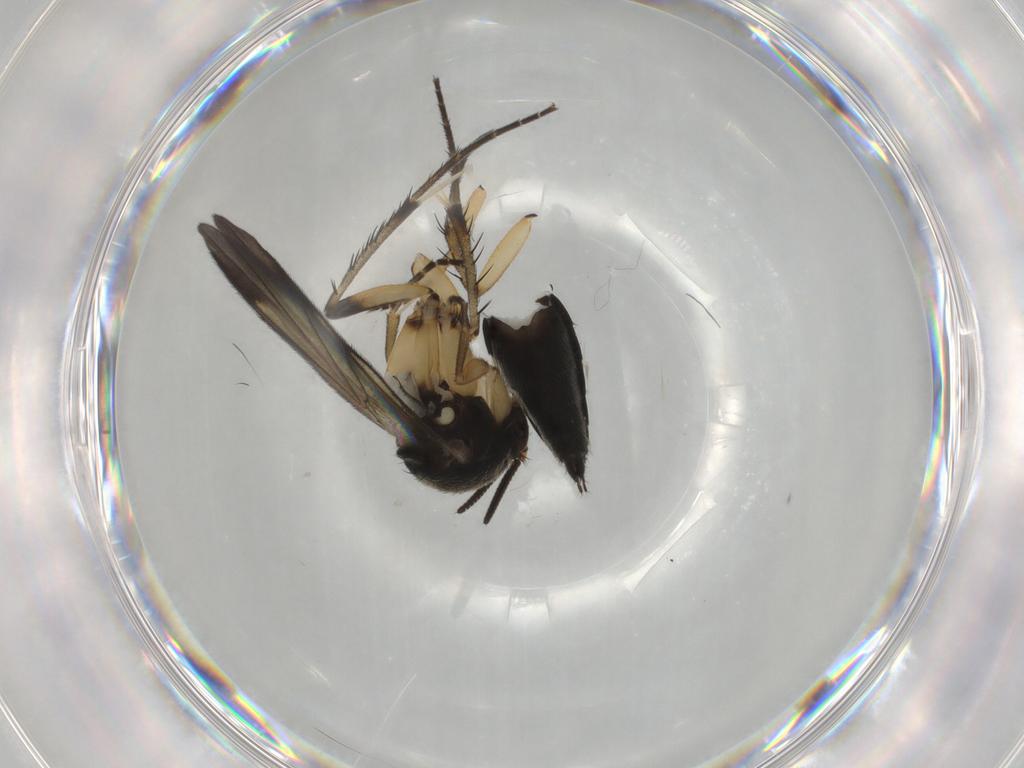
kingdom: Animalia
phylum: Arthropoda
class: Insecta
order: Diptera
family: Mycetophilidae
